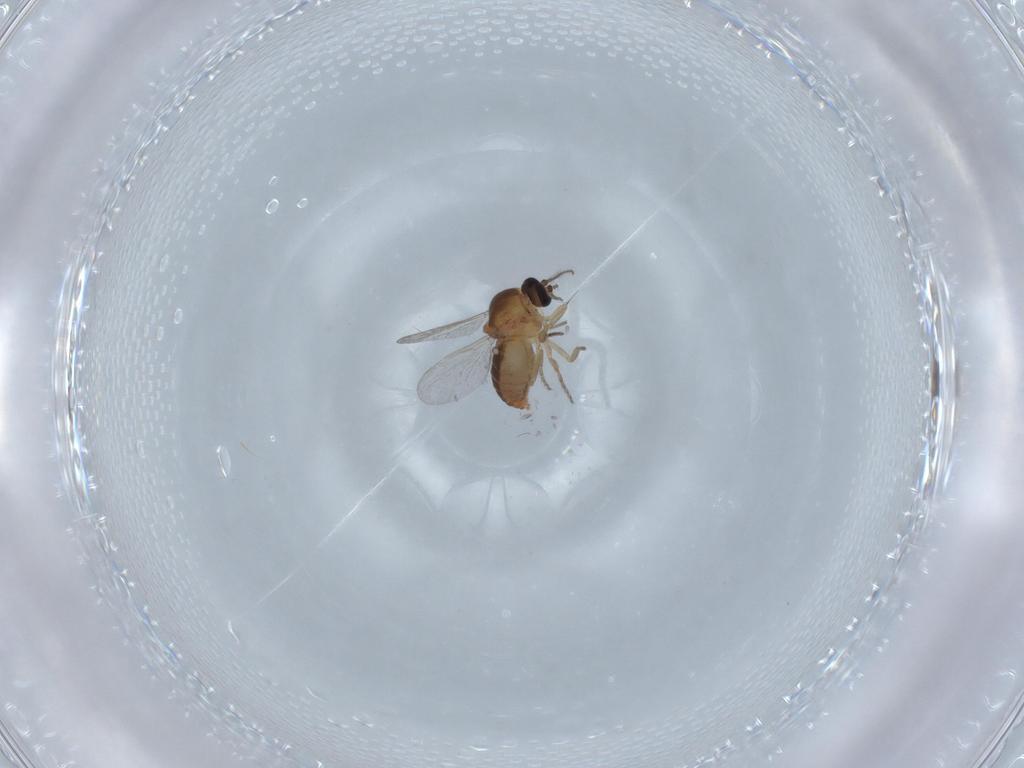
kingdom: Animalia
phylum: Arthropoda
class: Insecta
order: Diptera
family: Ceratopogonidae
